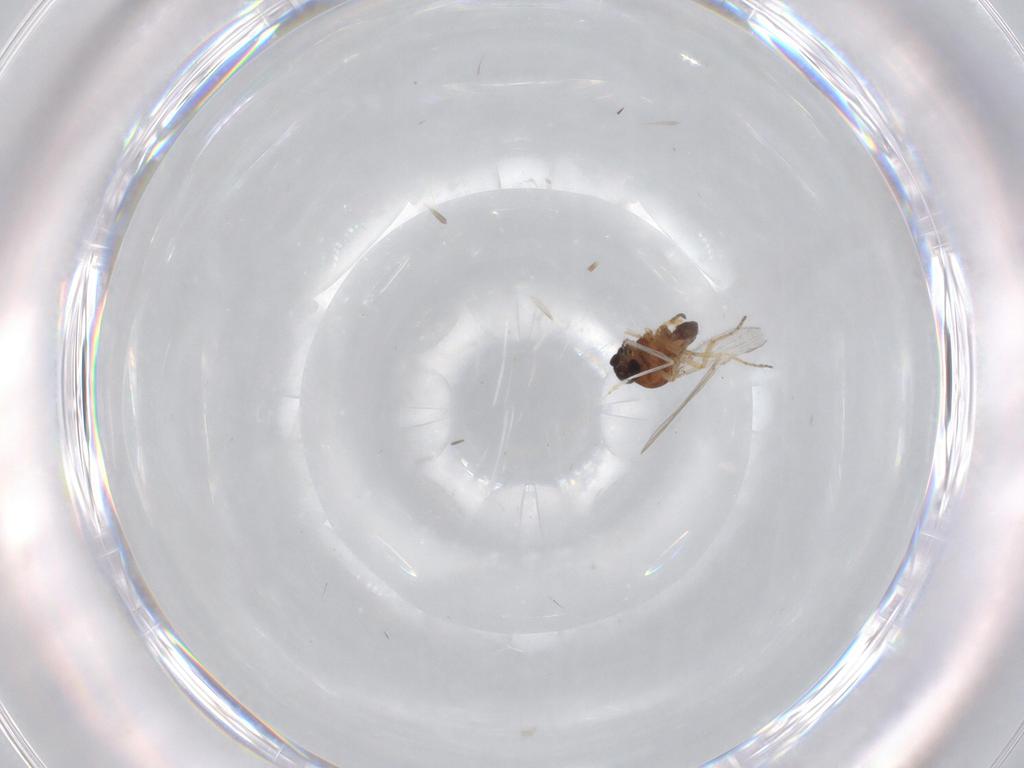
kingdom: Animalia
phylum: Arthropoda
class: Insecta
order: Diptera
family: Ceratopogonidae
